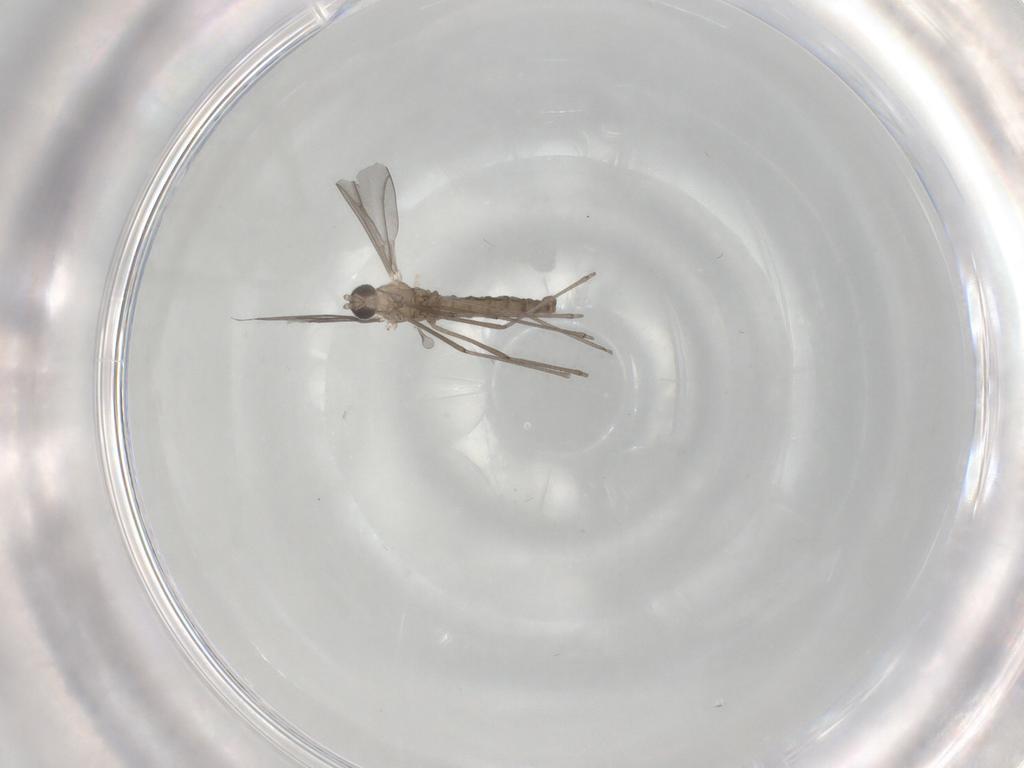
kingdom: Animalia
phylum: Arthropoda
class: Insecta
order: Diptera
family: Cecidomyiidae
